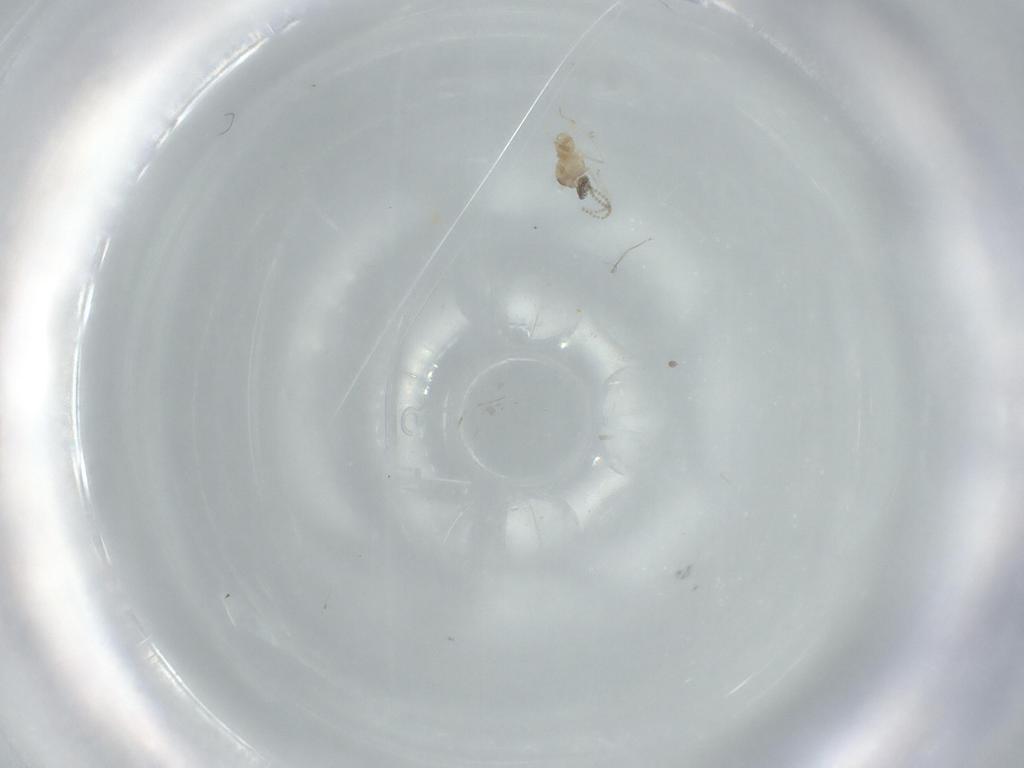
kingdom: Animalia
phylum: Arthropoda
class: Insecta
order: Diptera
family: Cecidomyiidae
